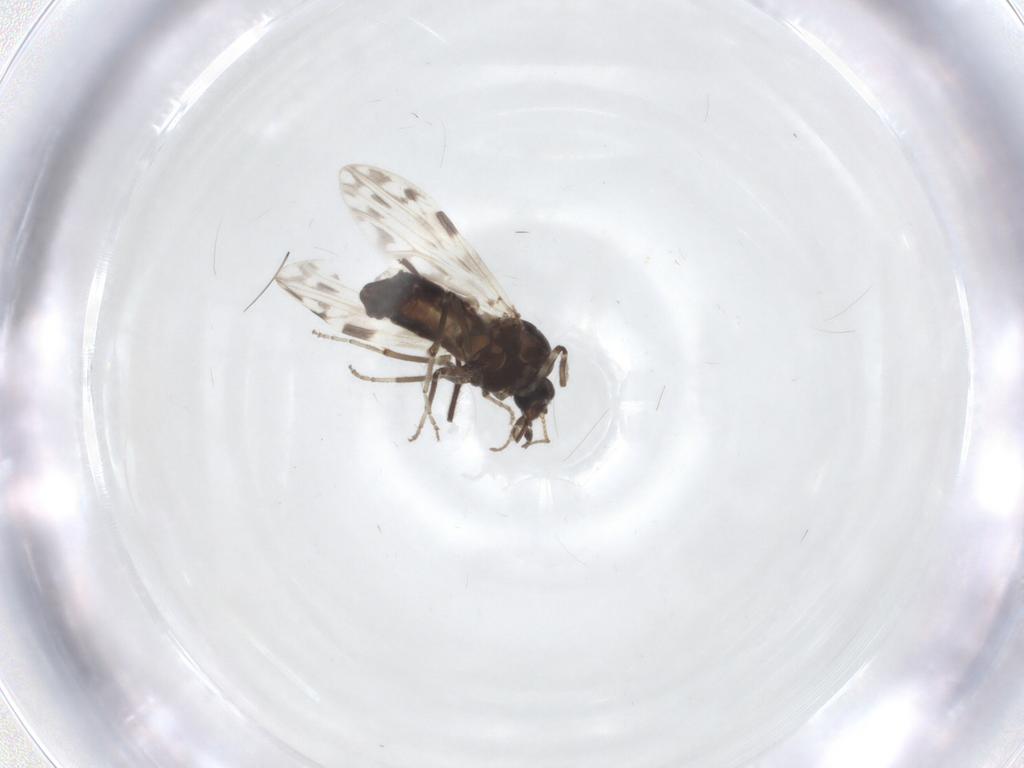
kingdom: Animalia
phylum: Arthropoda
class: Insecta
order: Diptera
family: Ceratopogonidae
